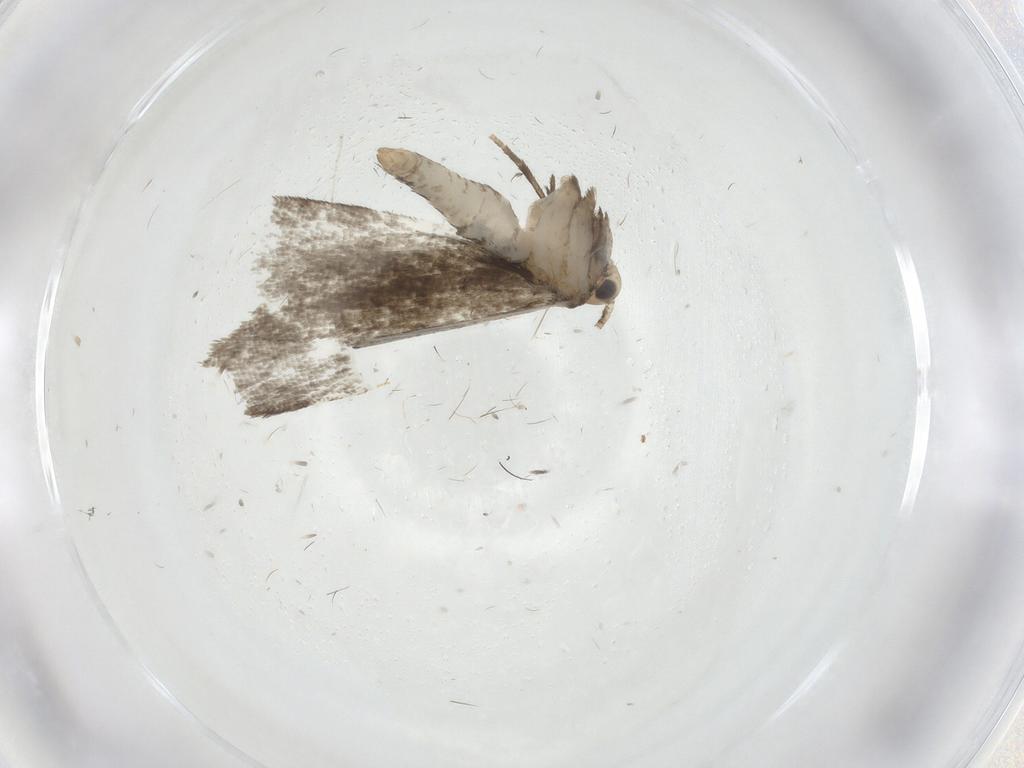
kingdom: Animalia
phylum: Arthropoda
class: Insecta
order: Lepidoptera
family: Nymphalidae
